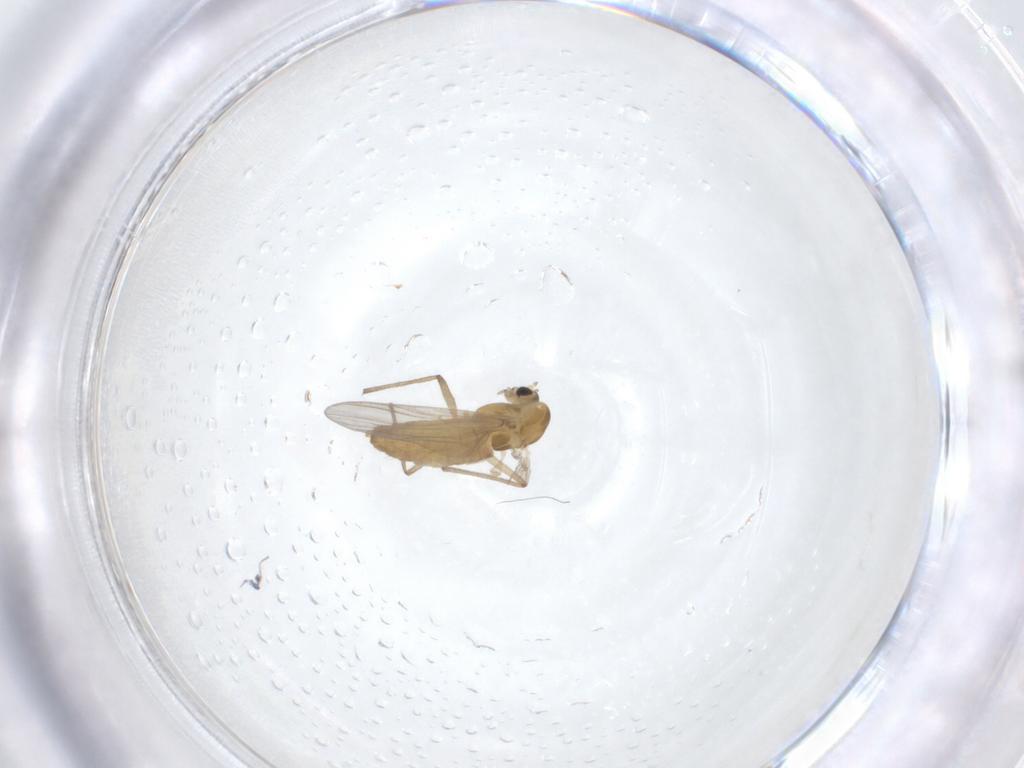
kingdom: Animalia
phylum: Arthropoda
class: Insecta
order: Diptera
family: Chironomidae
